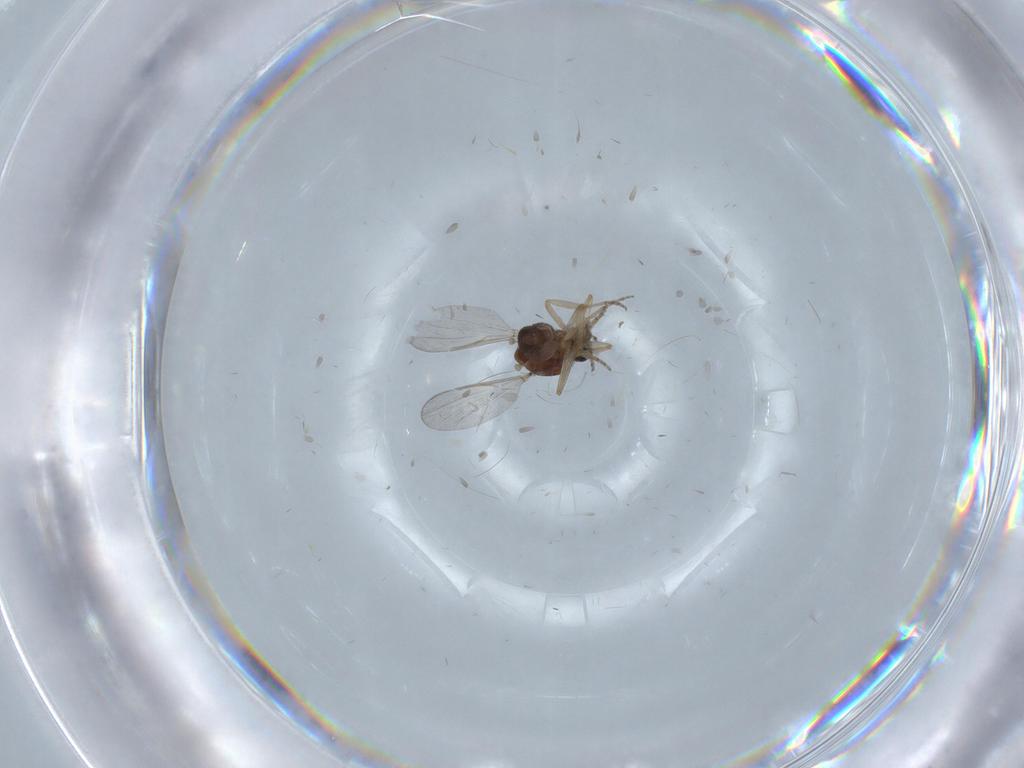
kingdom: Animalia
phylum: Arthropoda
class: Insecta
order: Diptera
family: Ceratopogonidae
